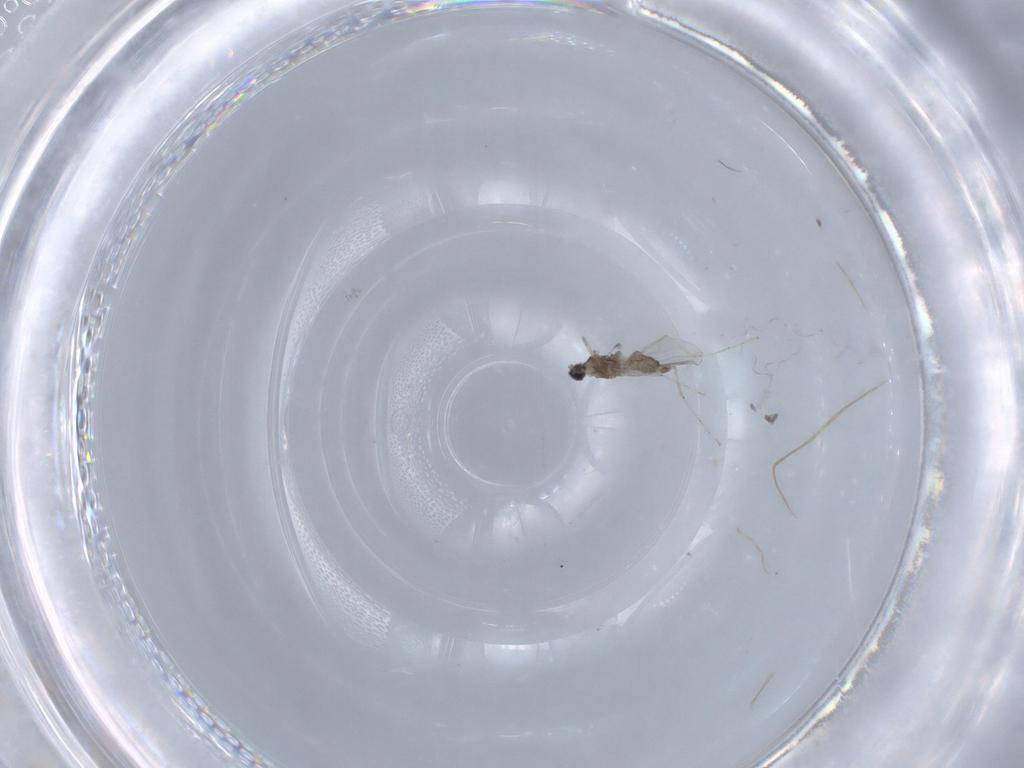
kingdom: Animalia
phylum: Arthropoda
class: Insecta
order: Diptera
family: Cecidomyiidae
